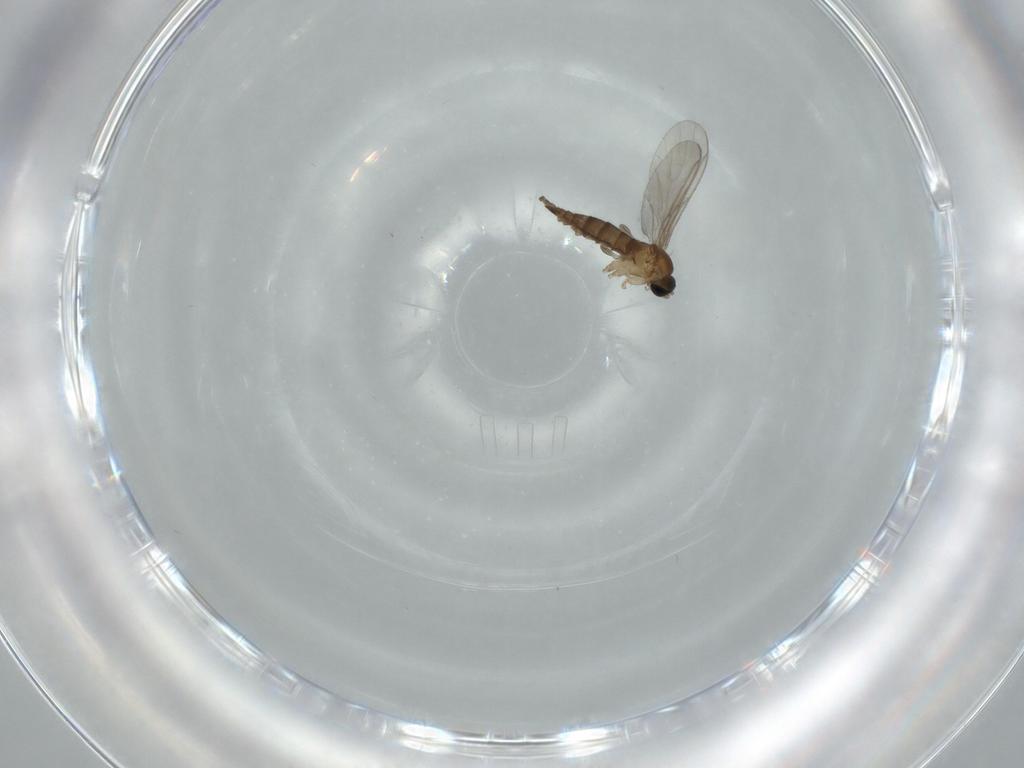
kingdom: Animalia
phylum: Arthropoda
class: Insecta
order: Diptera
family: Sciaridae
